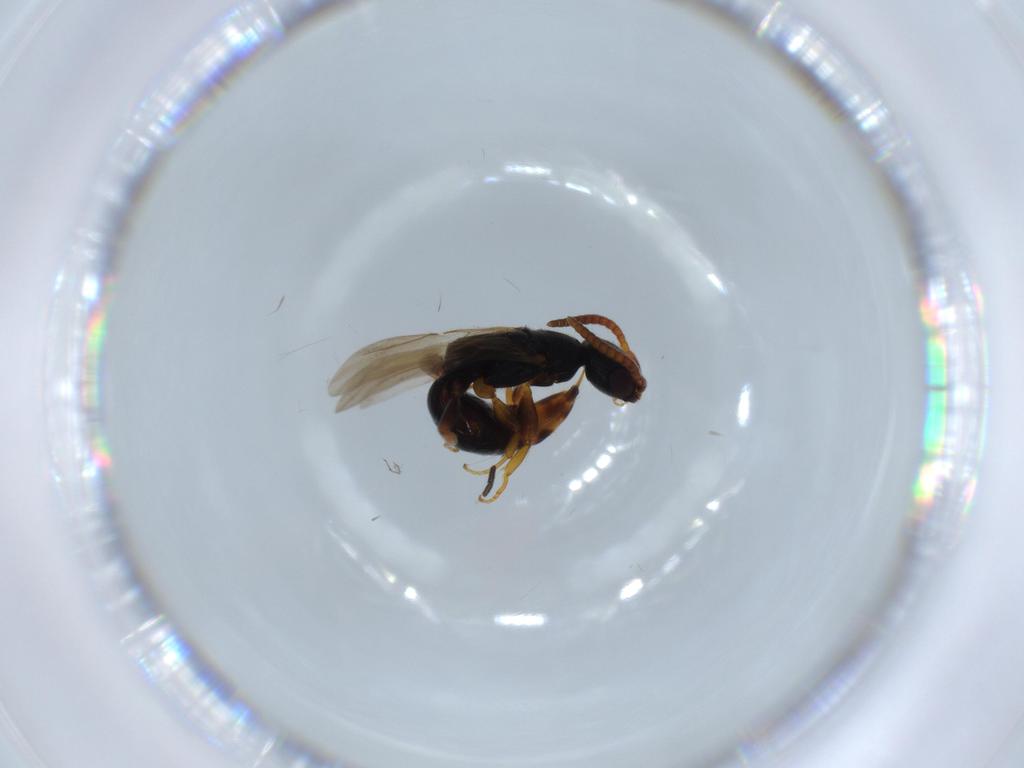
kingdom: Animalia
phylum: Arthropoda
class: Insecta
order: Hymenoptera
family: Bethylidae
